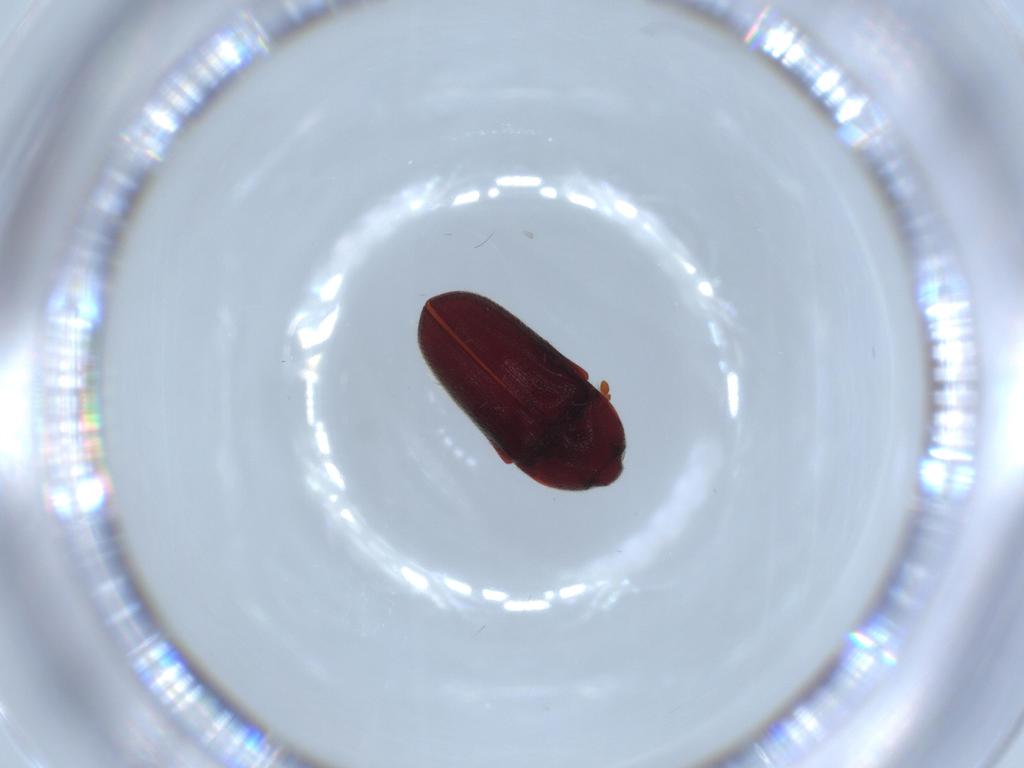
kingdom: Animalia
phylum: Arthropoda
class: Insecta
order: Coleoptera
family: Throscidae
